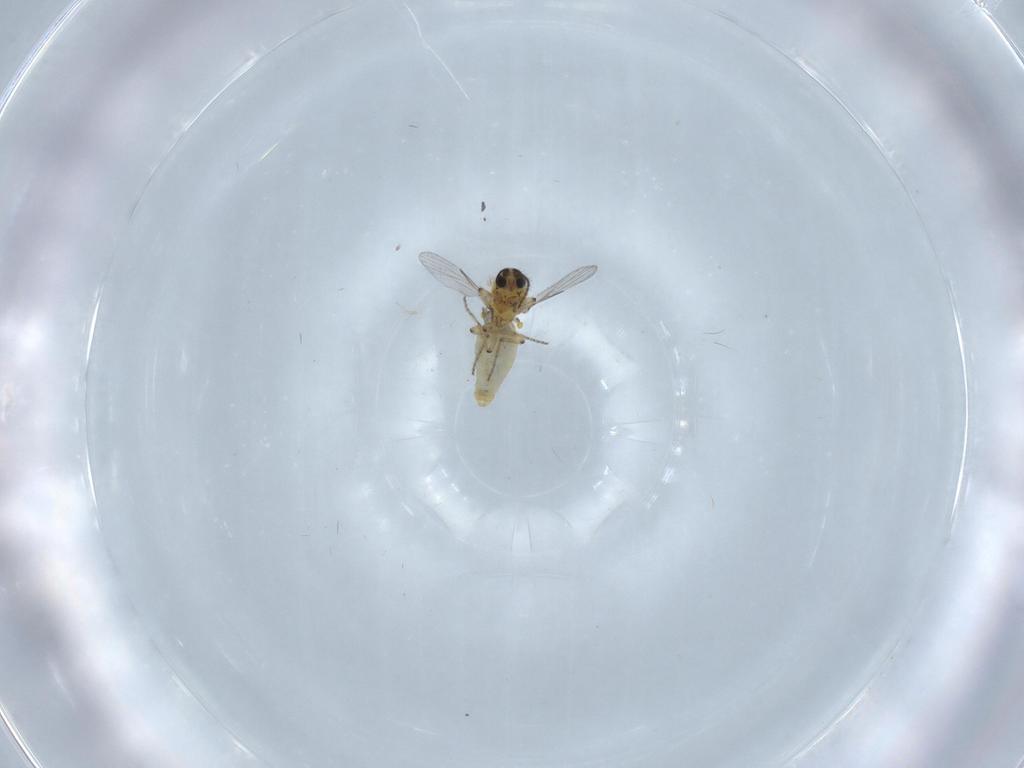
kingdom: Animalia
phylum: Arthropoda
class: Insecta
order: Diptera
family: Ceratopogonidae
